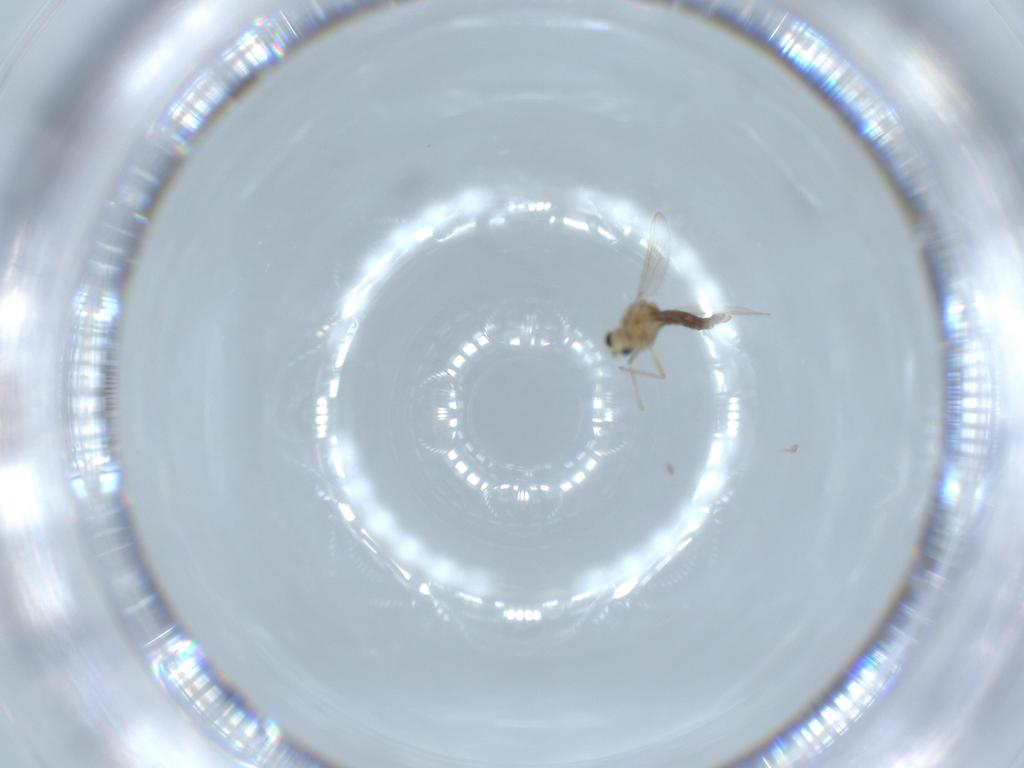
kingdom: Animalia
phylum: Arthropoda
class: Insecta
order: Diptera
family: Chironomidae
